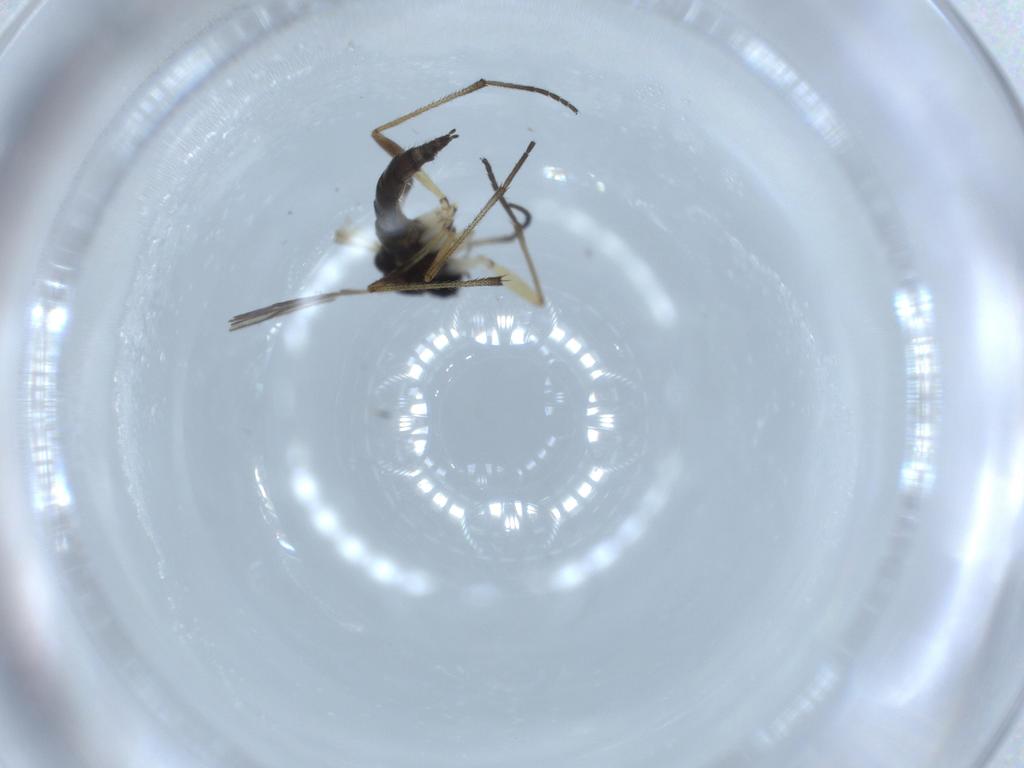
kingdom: Animalia
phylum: Arthropoda
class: Insecta
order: Diptera
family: Sciaridae
